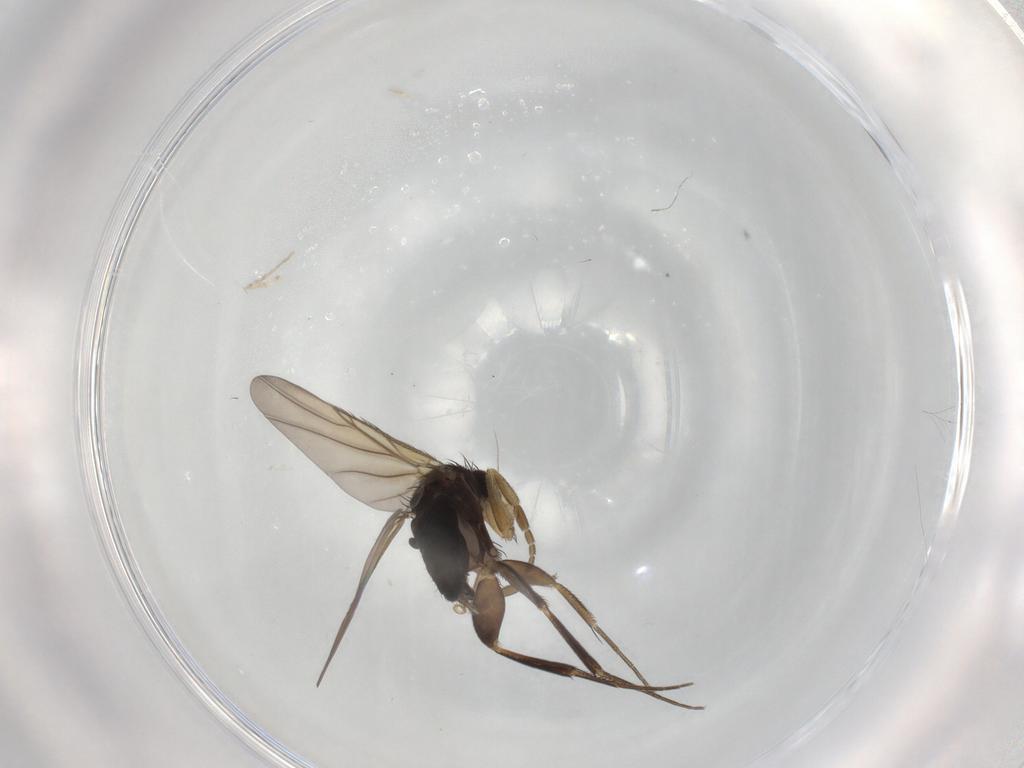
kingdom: Animalia
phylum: Arthropoda
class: Insecta
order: Diptera
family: Phoridae
